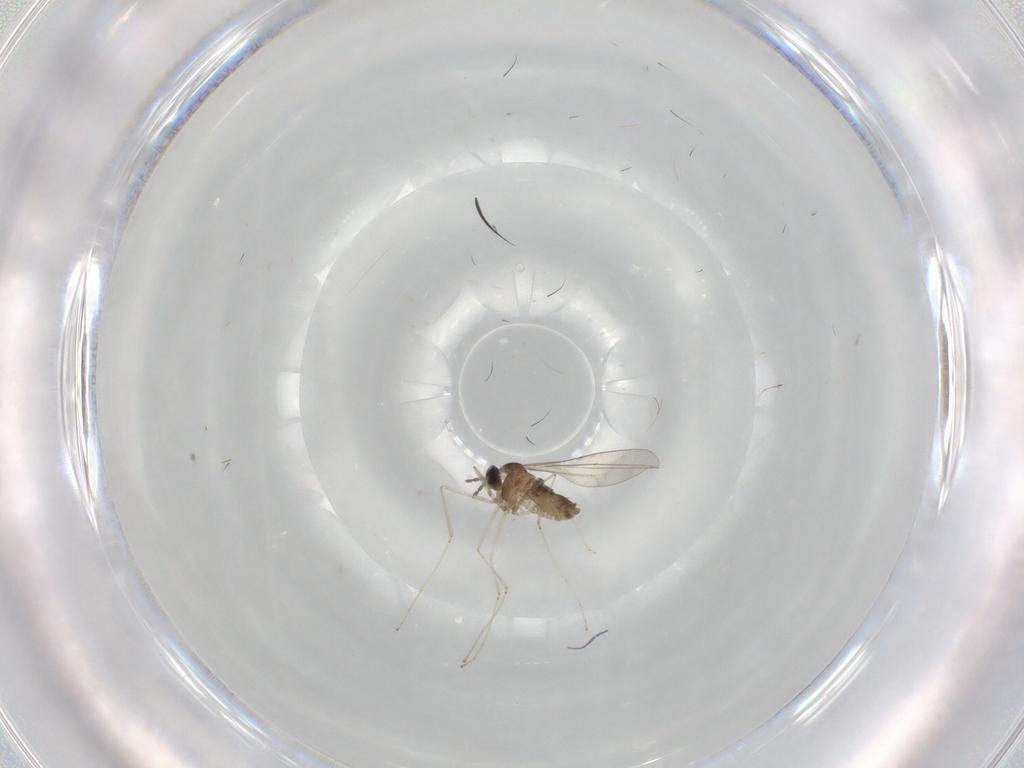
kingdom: Animalia
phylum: Arthropoda
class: Insecta
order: Diptera
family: Cecidomyiidae
